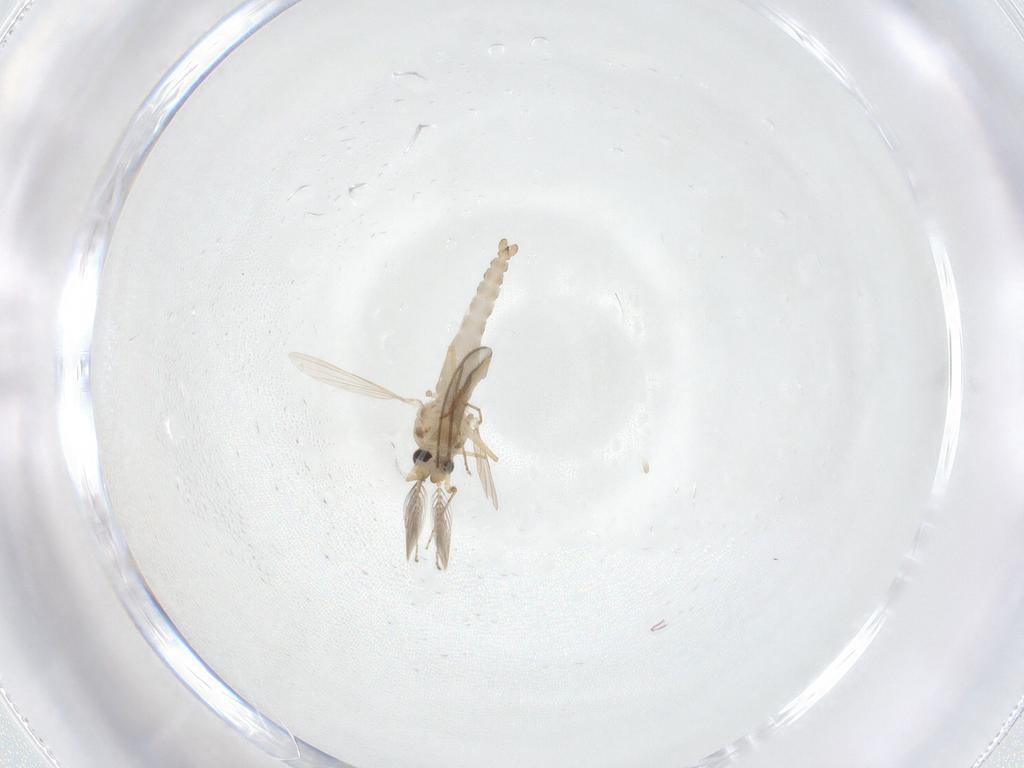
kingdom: Animalia
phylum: Arthropoda
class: Insecta
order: Diptera
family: Ceratopogonidae
